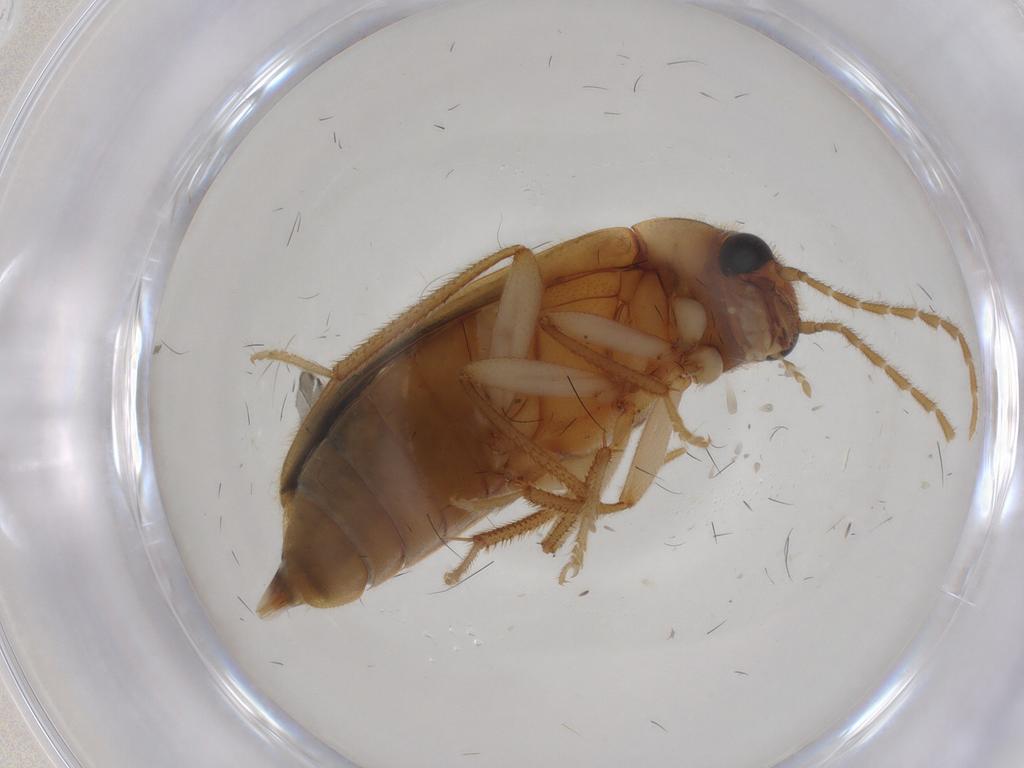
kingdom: Animalia
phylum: Arthropoda
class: Insecta
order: Coleoptera
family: Ptilodactylidae
